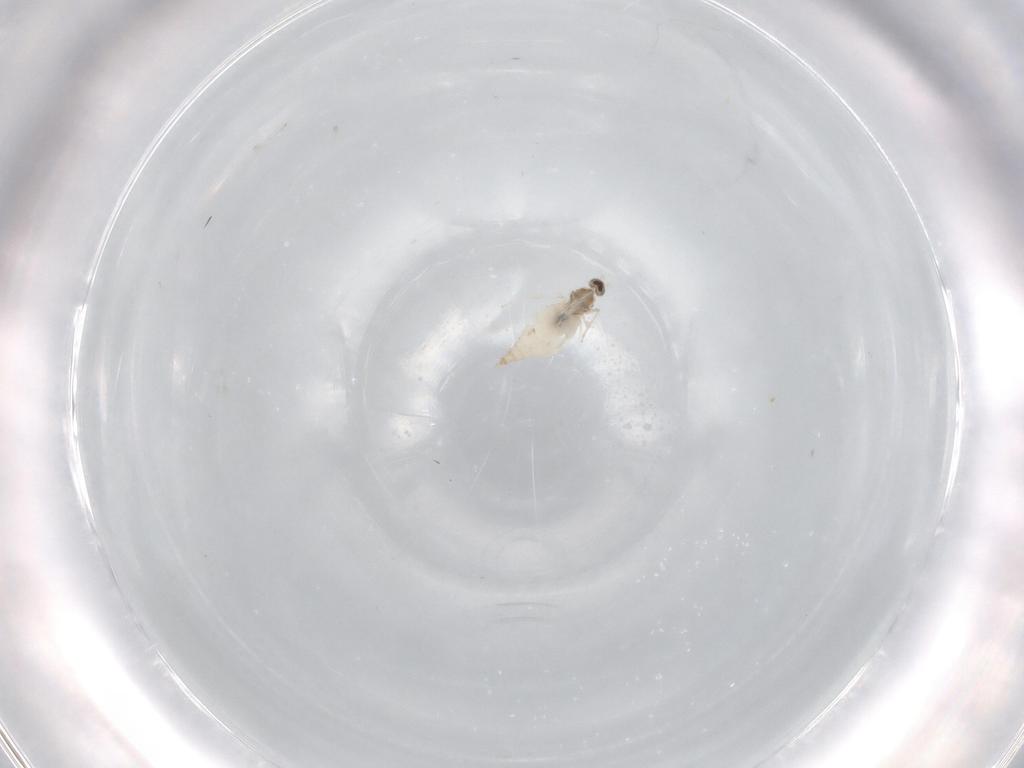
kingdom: Animalia
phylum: Arthropoda
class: Insecta
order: Diptera
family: Cecidomyiidae
